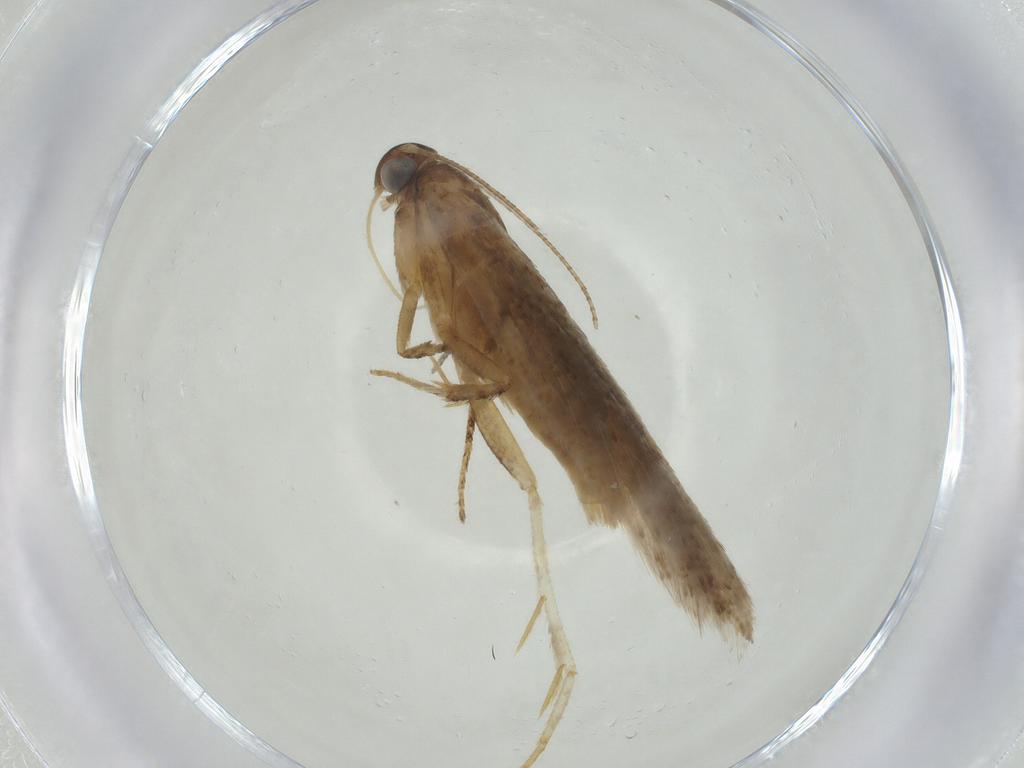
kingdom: Animalia
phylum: Arthropoda
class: Insecta
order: Lepidoptera
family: Gelechiidae
